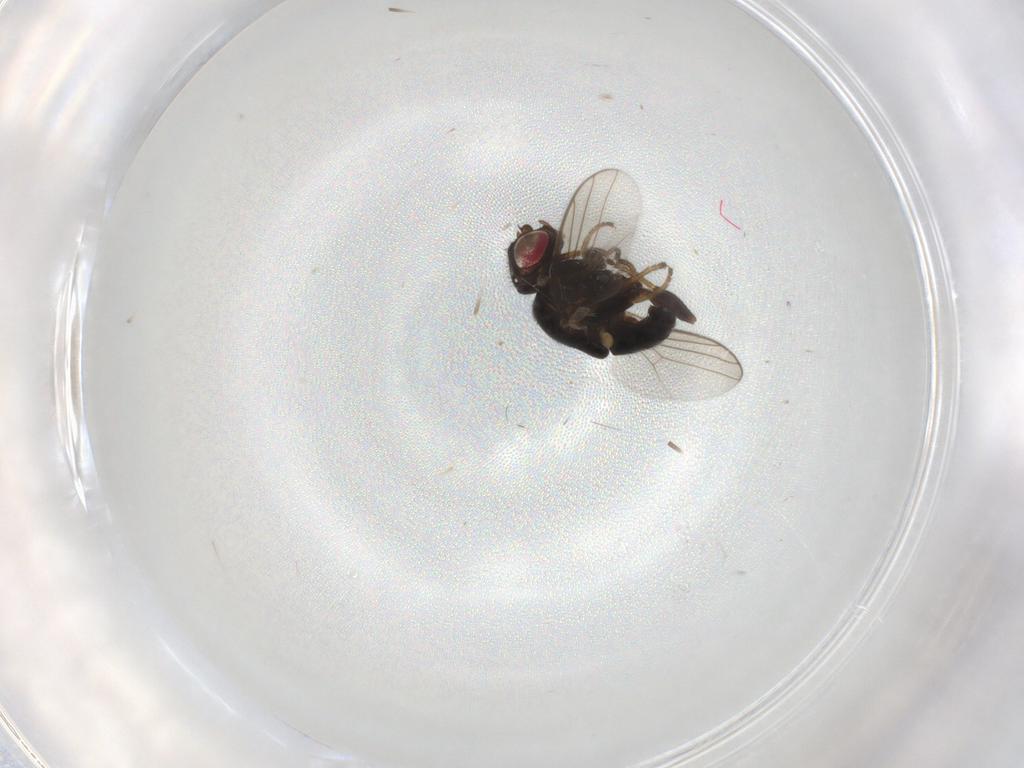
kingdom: Animalia
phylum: Arthropoda
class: Insecta
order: Diptera
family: Chloropidae
